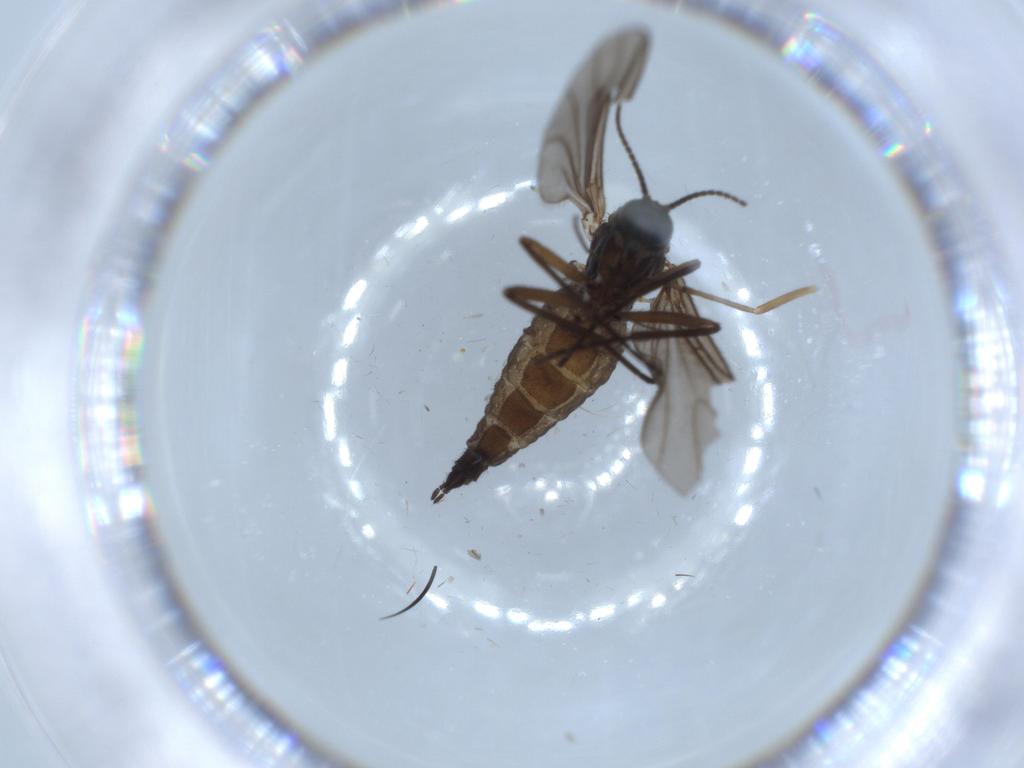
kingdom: Animalia
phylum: Arthropoda
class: Insecta
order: Diptera
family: Sciaridae
